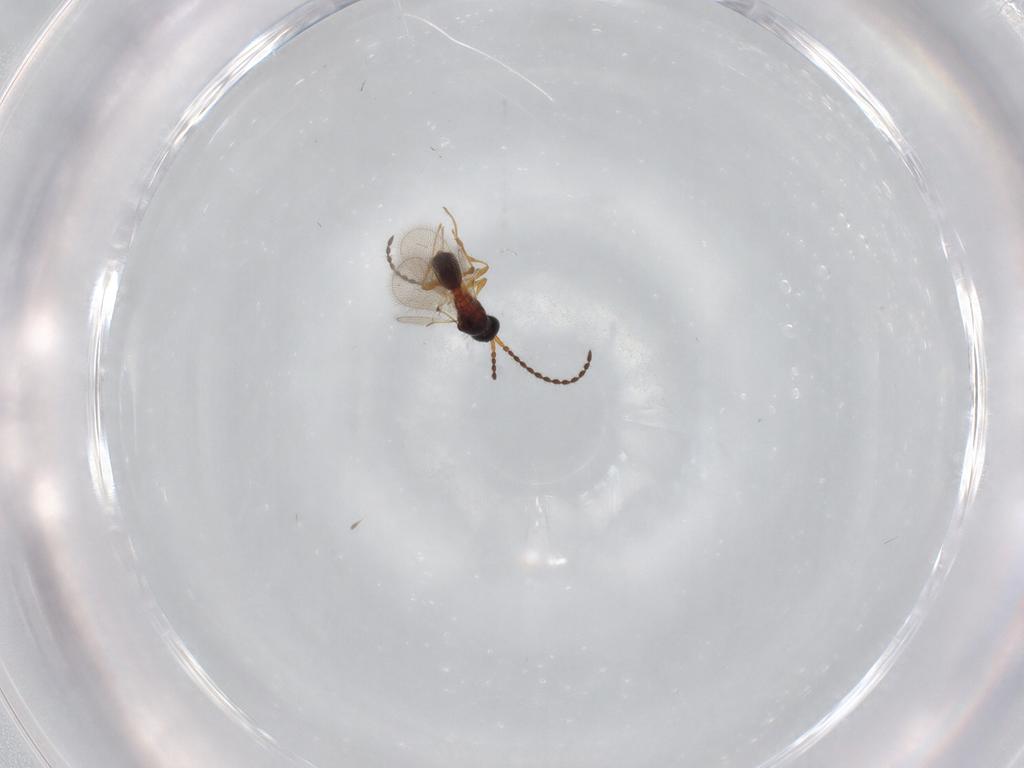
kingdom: Animalia
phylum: Arthropoda
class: Insecta
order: Hymenoptera
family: Diapriidae
